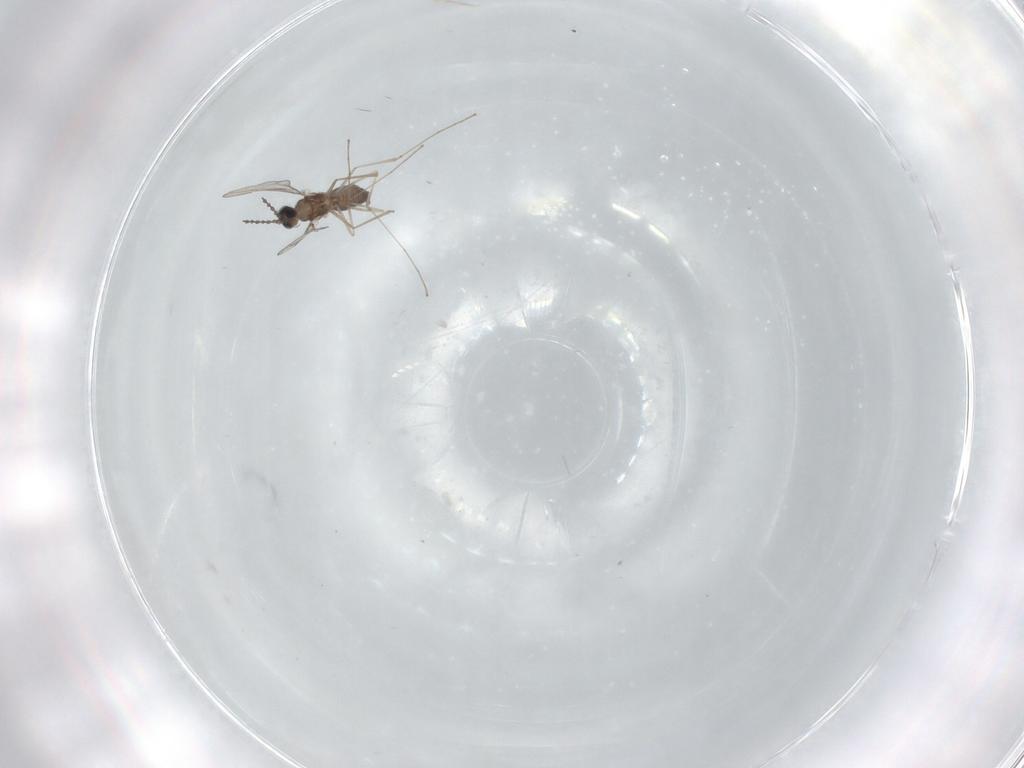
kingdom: Animalia
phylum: Arthropoda
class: Insecta
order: Diptera
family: Cecidomyiidae
